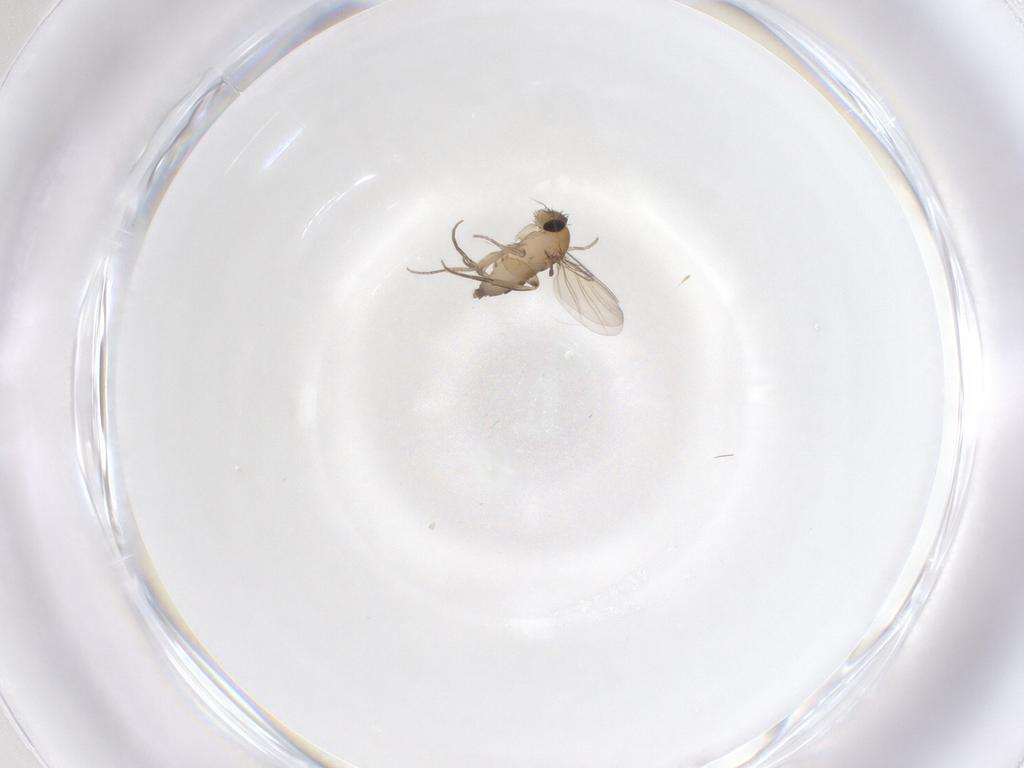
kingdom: Animalia
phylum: Arthropoda
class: Insecta
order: Diptera
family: Phoridae
